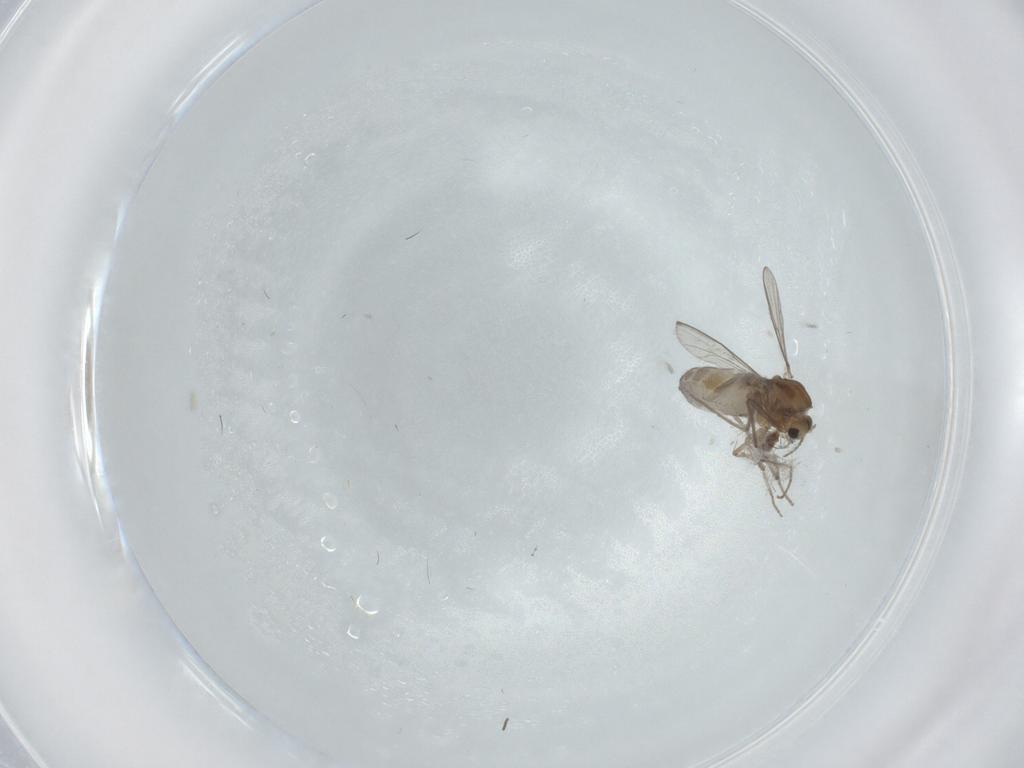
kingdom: Animalia
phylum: Arthropoda
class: Insecta
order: Diptera
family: Chironomidae
